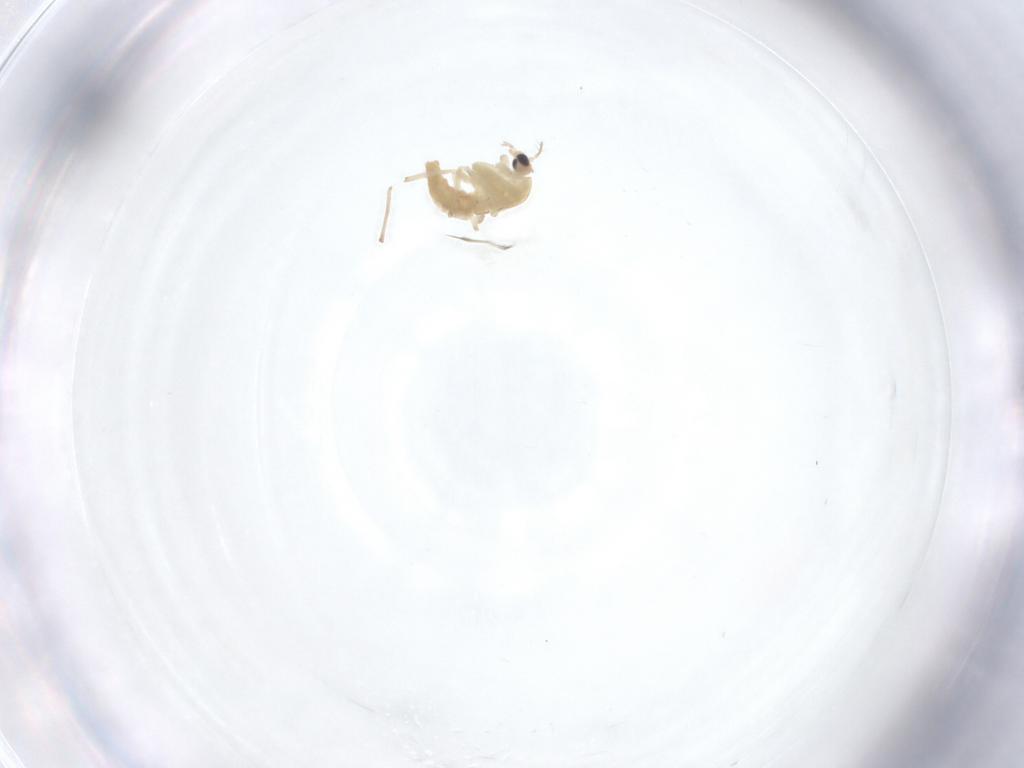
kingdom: Animalia
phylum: Arthropoda
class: Insecta
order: Diptera
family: Chironomidae
